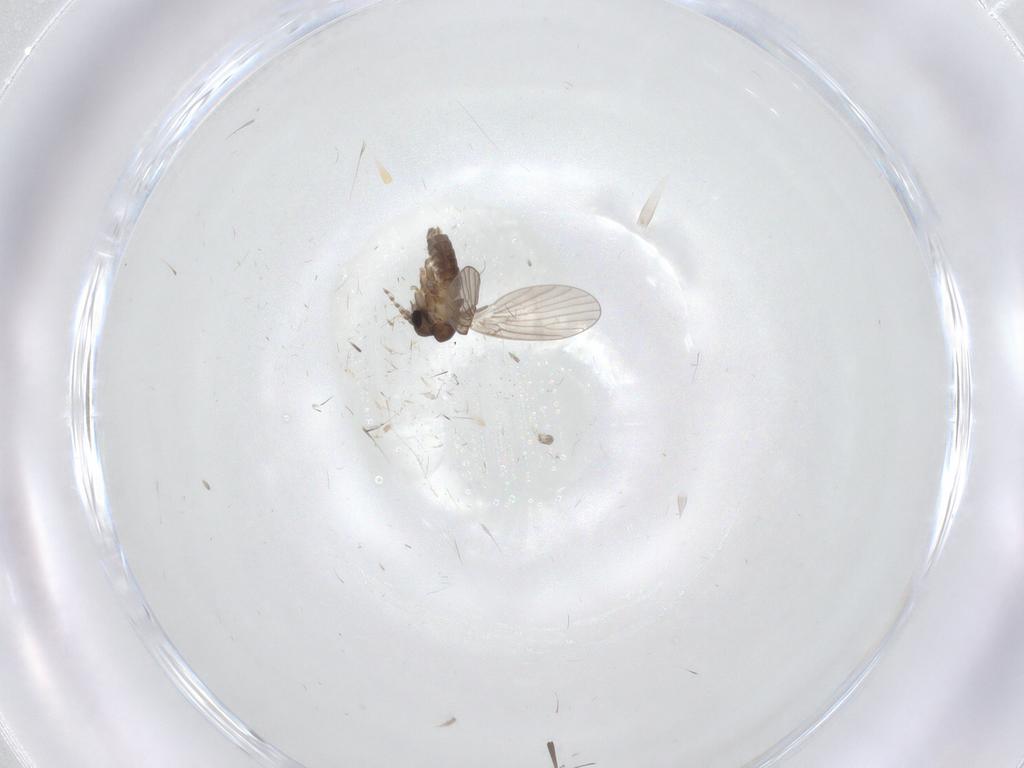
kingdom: Animalia
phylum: Arthropoda
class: Insecta
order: Diptera
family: Cecidomyiidae
